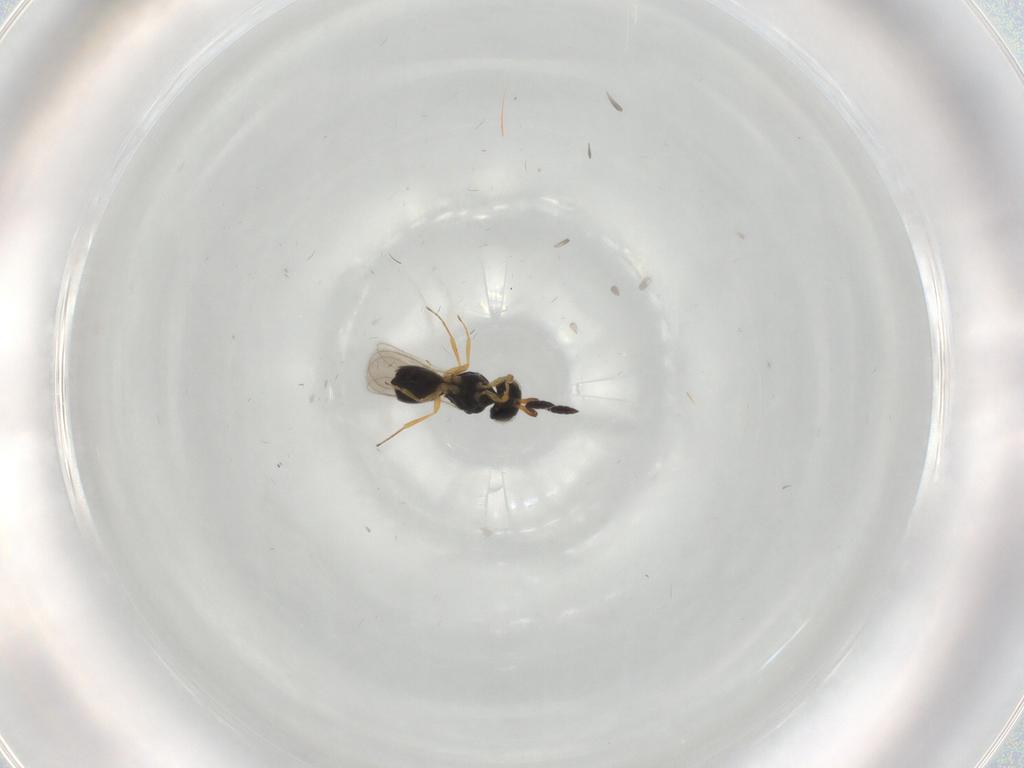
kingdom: Animalia
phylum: Arthropoda
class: Insecta
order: Hymenoptera
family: Scelionidae
